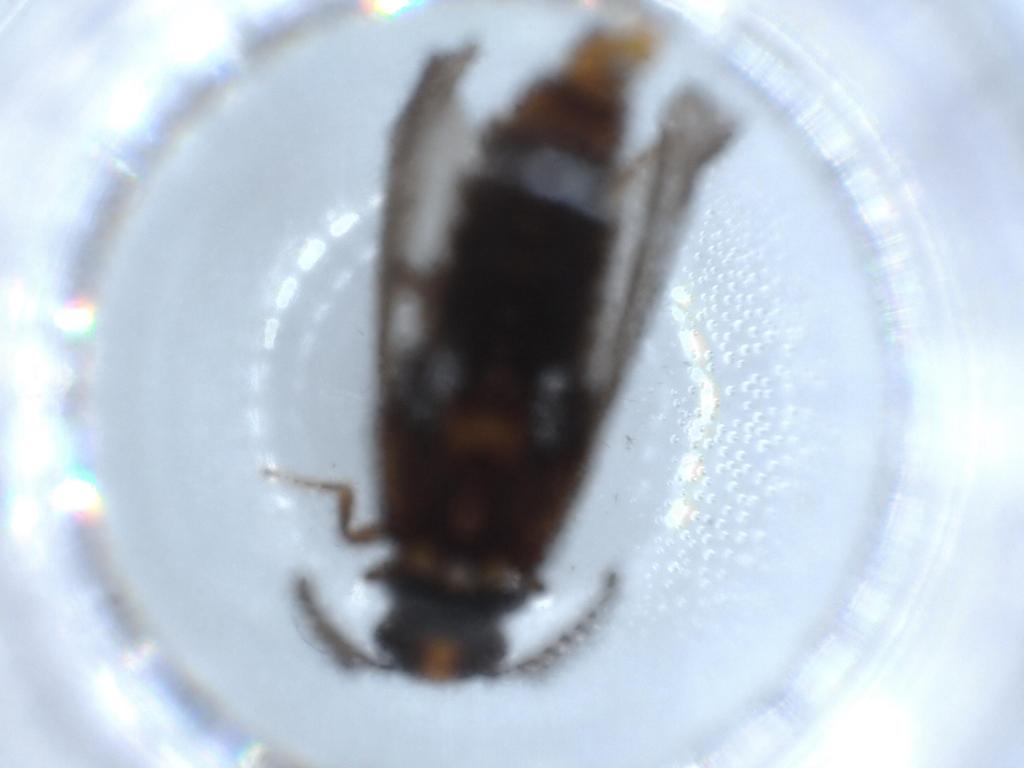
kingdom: Animalia
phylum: Arthropoda
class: Insecta
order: Coleoptera
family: Phengodidae
